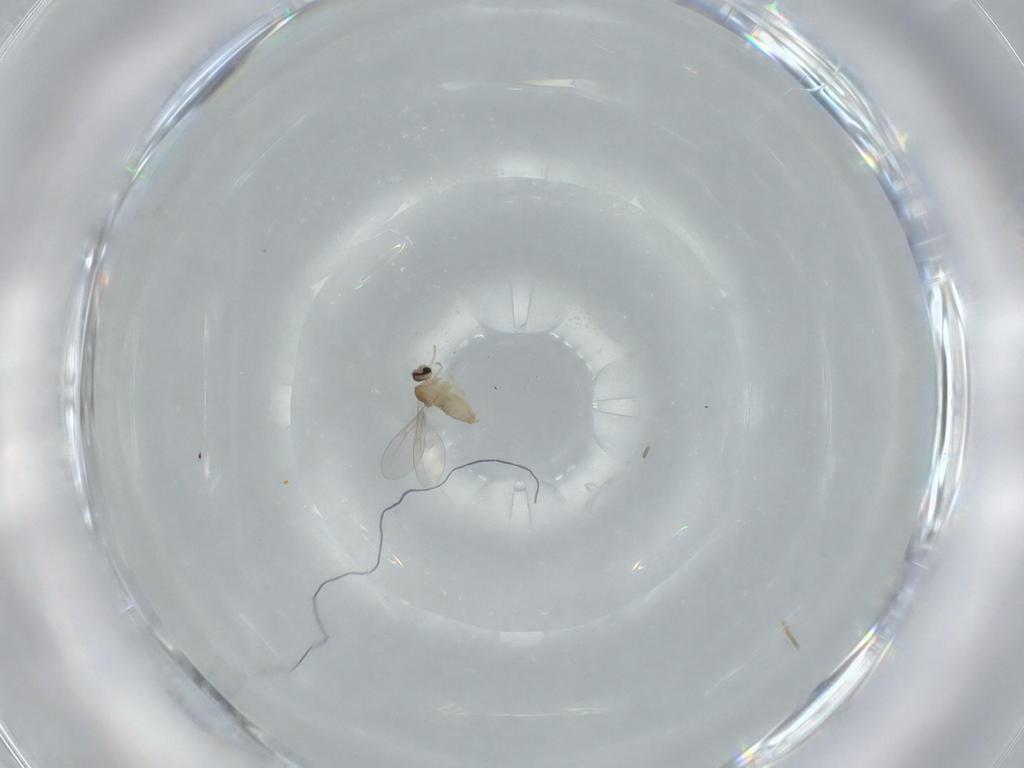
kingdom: Animalia
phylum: Arthropoda
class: Insecta
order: Diptera
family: Cecidomyiidae
